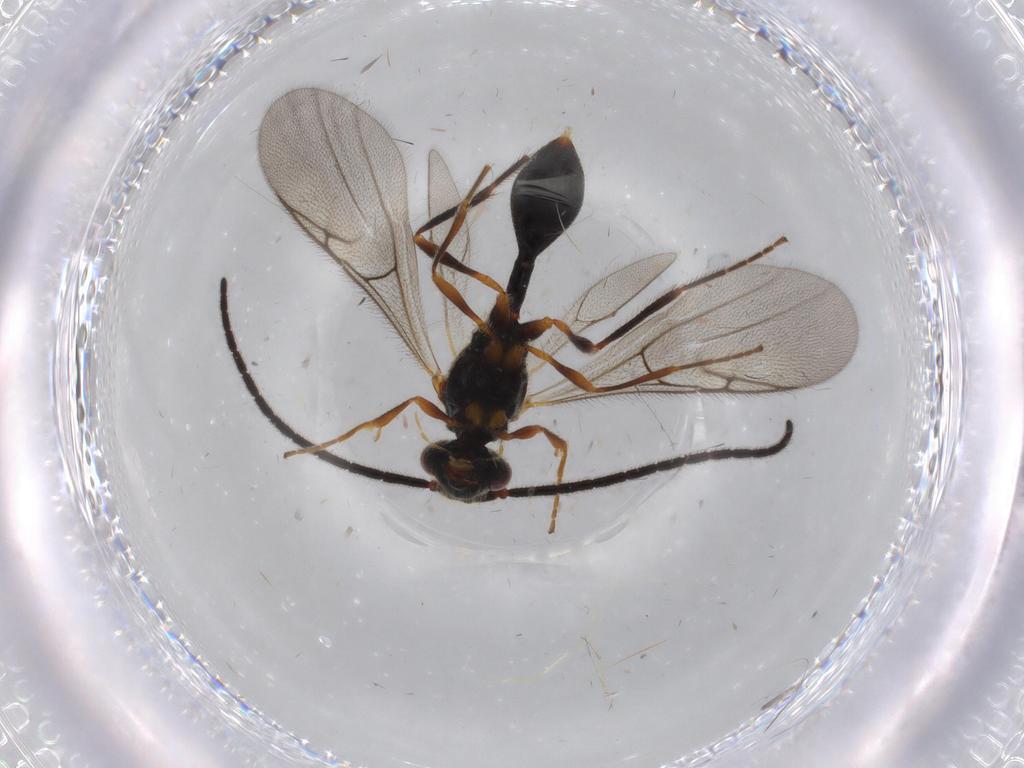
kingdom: Animalia
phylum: Arthropoda
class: Insecta
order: Hymenoptera
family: Formicidae
